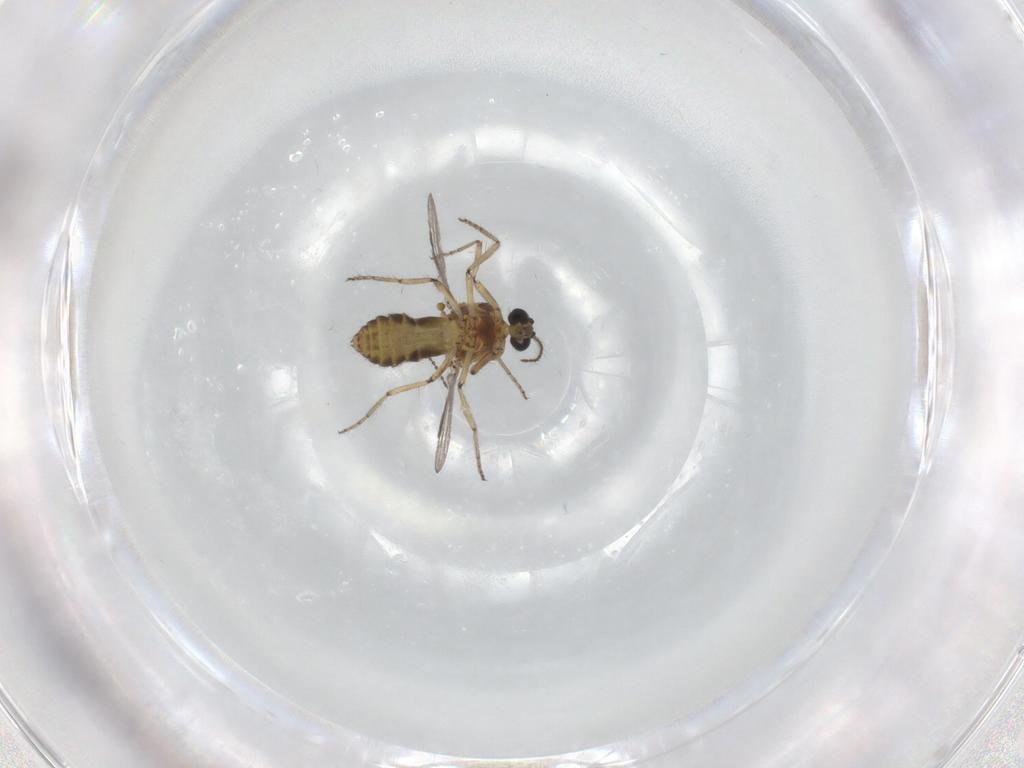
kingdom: Animalia
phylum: Arthropoda
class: Insecta
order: Diptera
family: Ceratopogonidae
